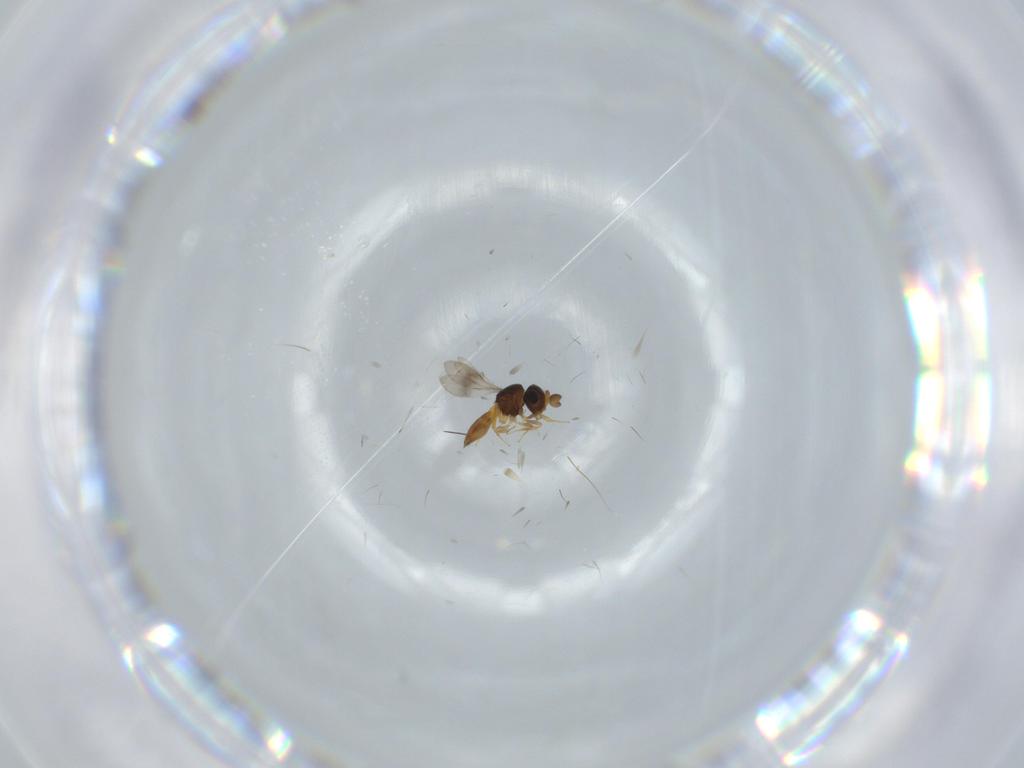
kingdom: Animalia
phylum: Arthropoda
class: Insecta
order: Hymenoptera
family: Scelionidae
